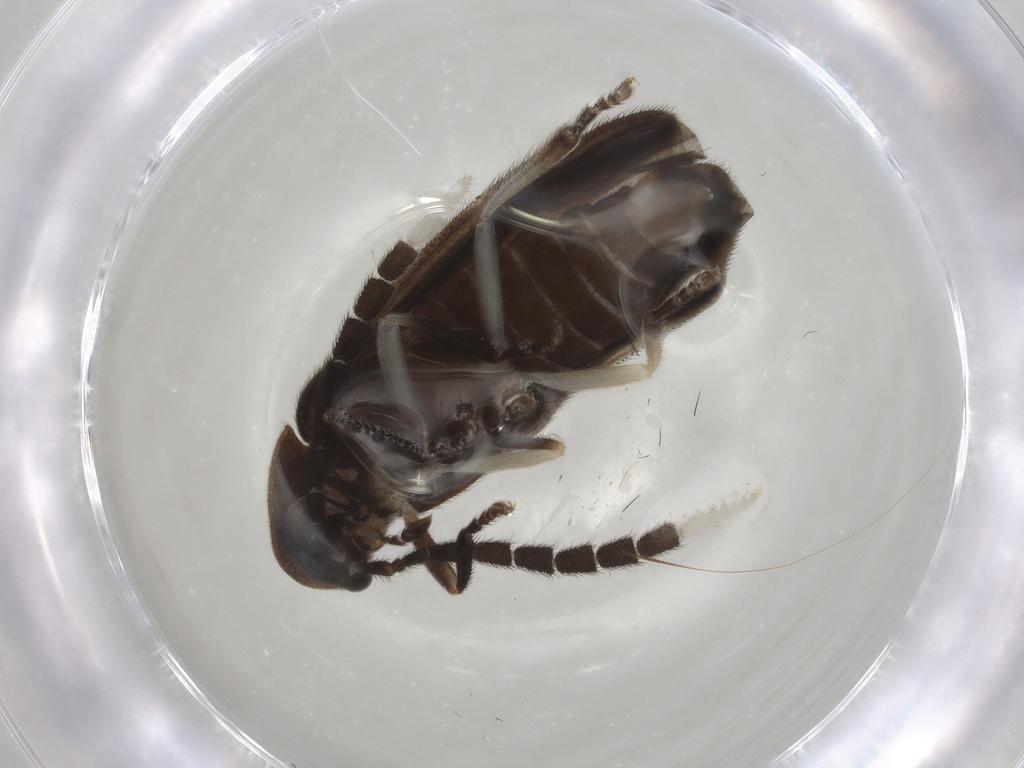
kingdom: Animalia
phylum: Arthropoda
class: Insecta
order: Coleoptera
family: Lampyridae
